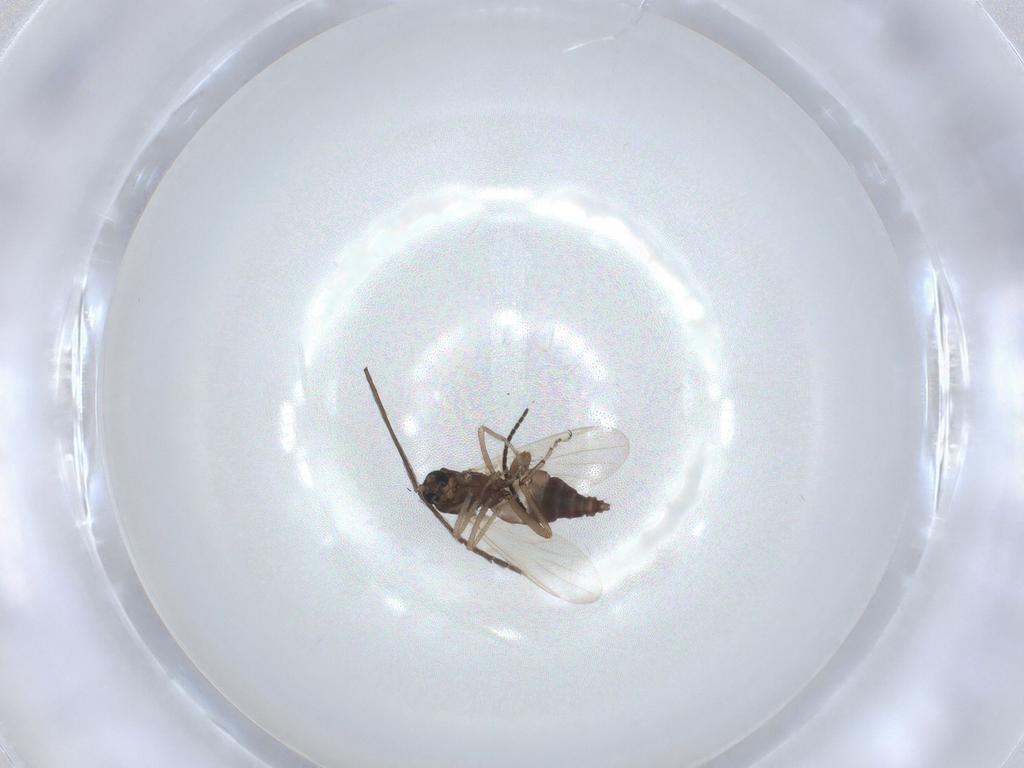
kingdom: Animalia
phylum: Arthropoda
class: Insecta
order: Diptera
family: Ceratopogonidae
